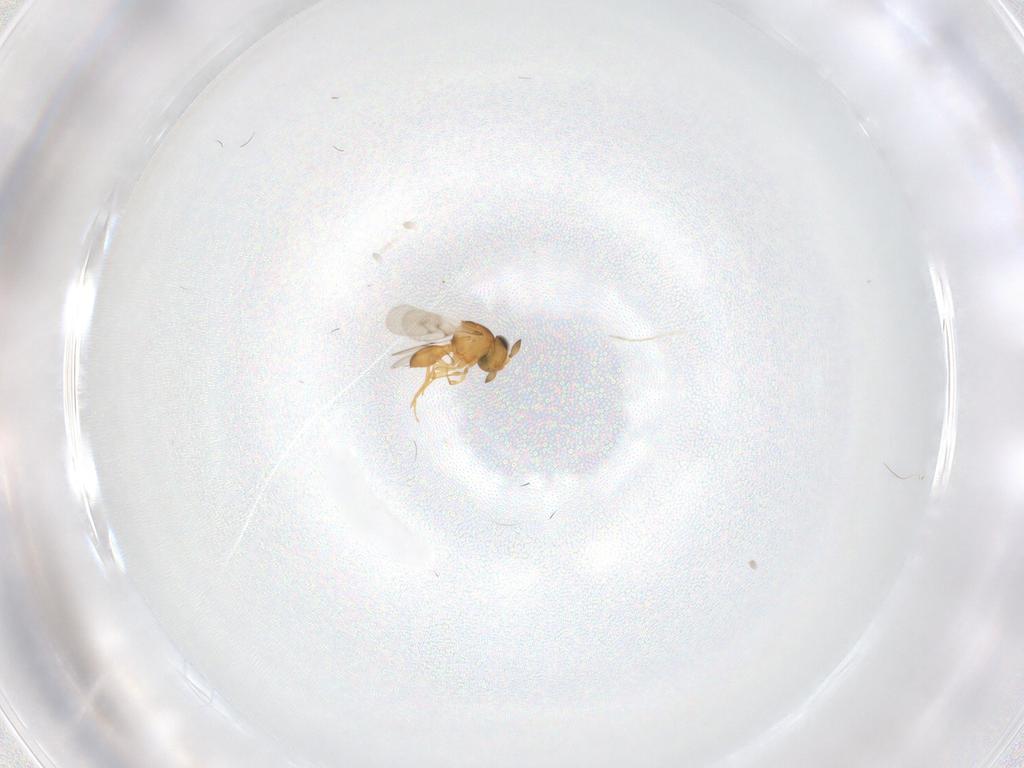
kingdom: Animalia
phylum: Arthropoda
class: Insecta
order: Hymenoptera
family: Scelionidae
